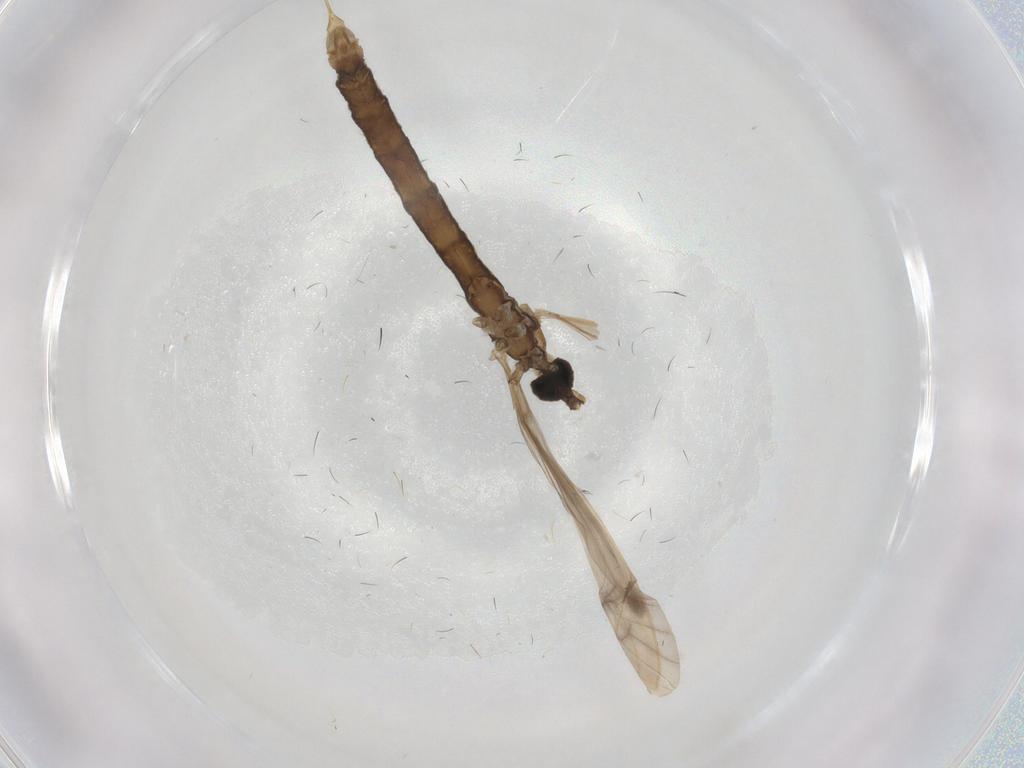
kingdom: Animalia
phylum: Arthropoda
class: Insecta
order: Diptera
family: Limoniidae
